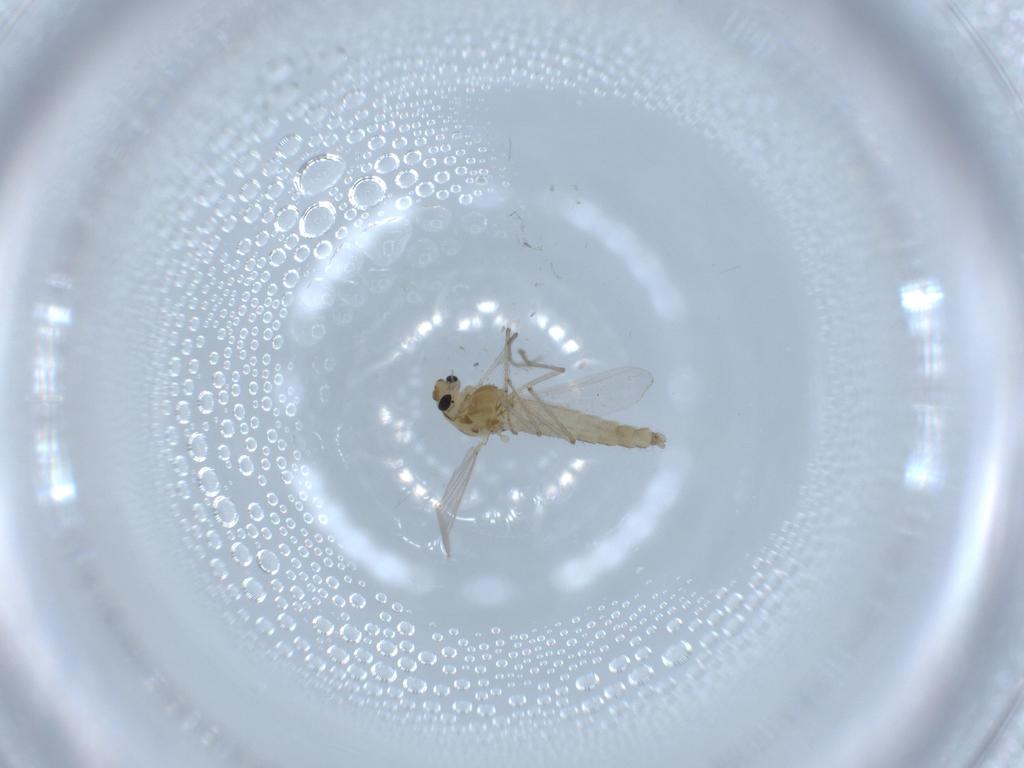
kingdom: Animalia
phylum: Arthropoda
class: Insecta
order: Diptera
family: Chironomidae
